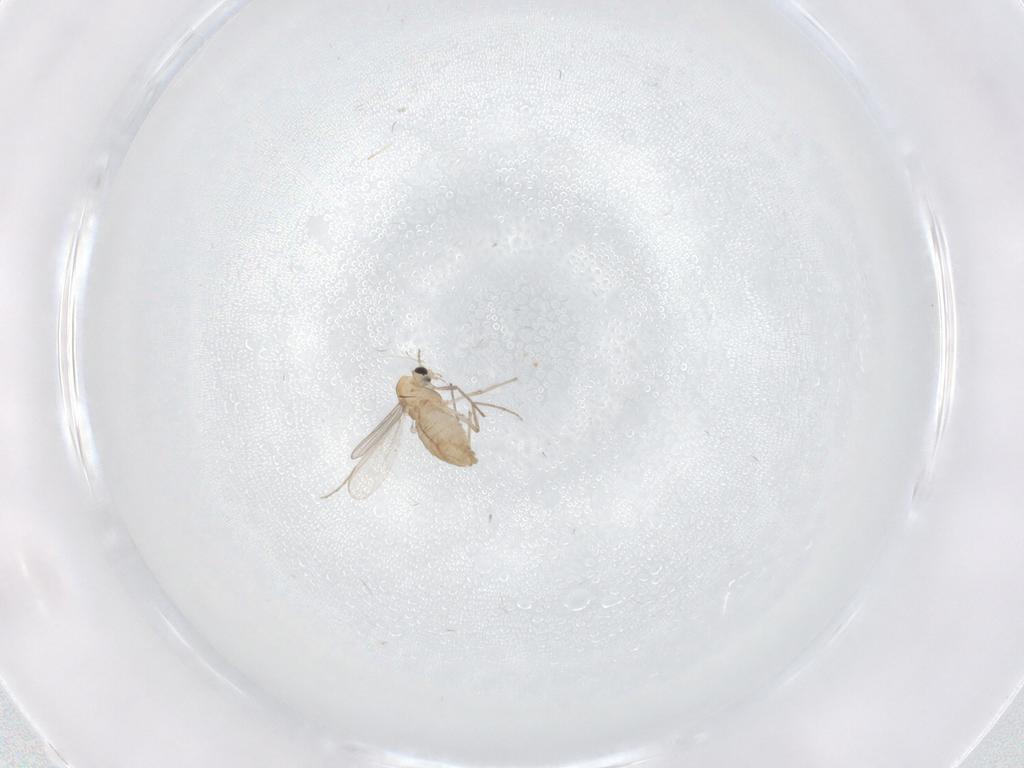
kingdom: Animalia
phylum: Arthropoda
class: Insecta
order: Diptera
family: Chironomidae
